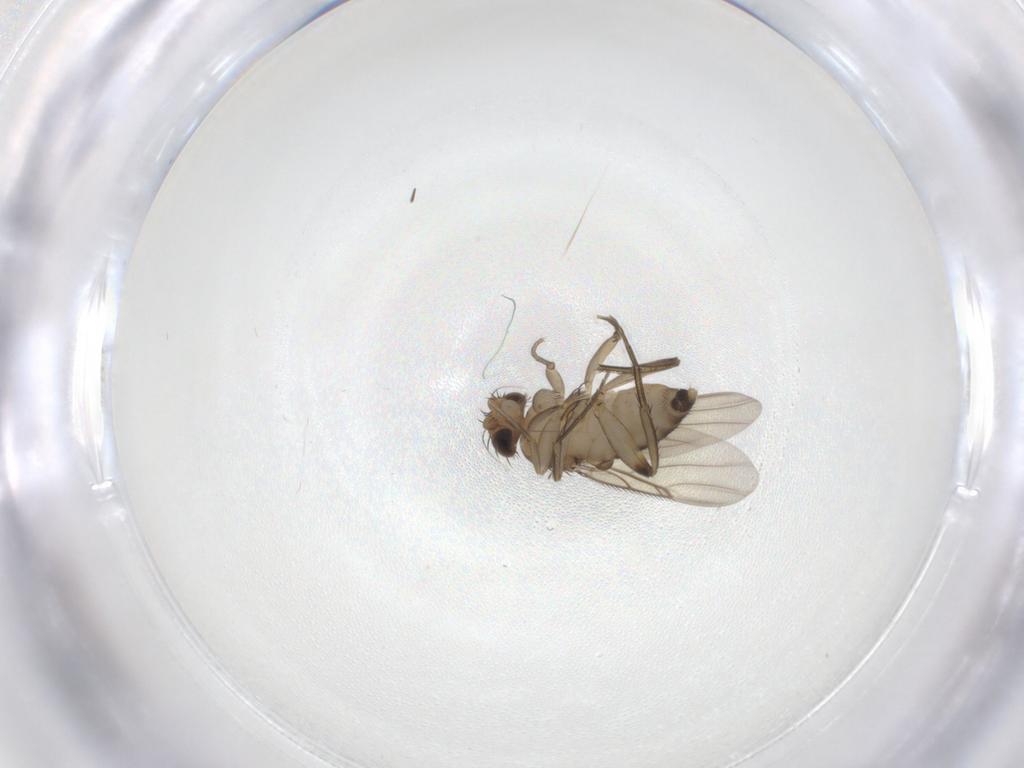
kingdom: Animalia
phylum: Arthropoda
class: Insecta
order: Diptera
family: Phoridae
